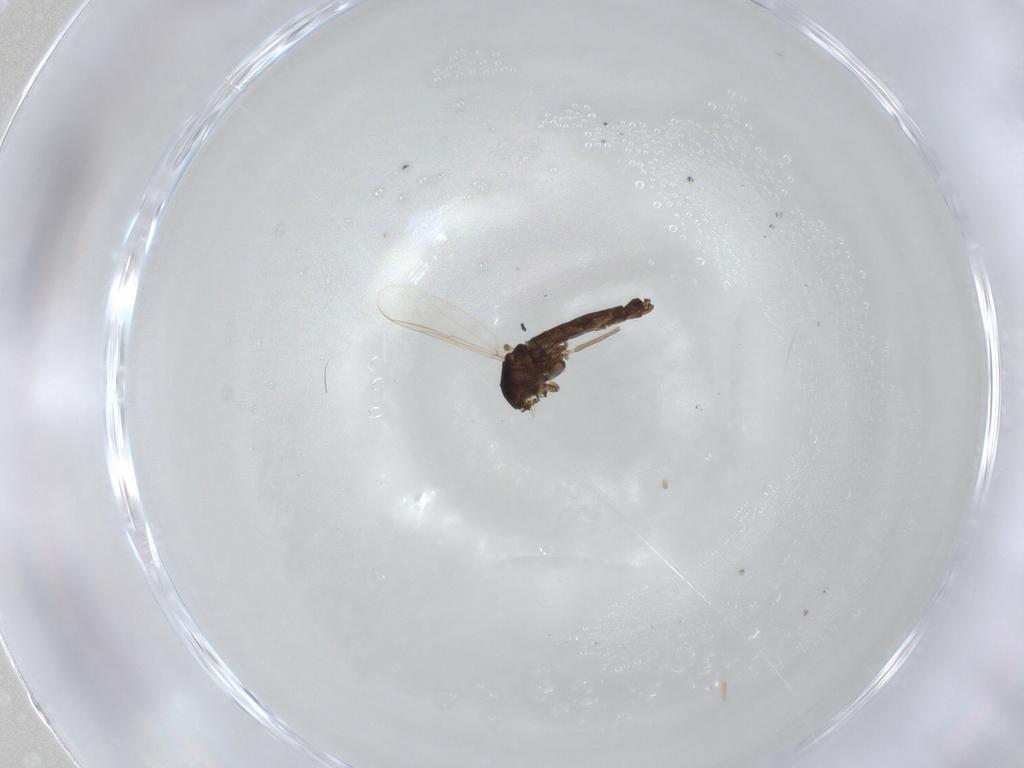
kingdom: Animalia
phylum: Arthropoda
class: Insecta
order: Diptera
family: Chironomidae
